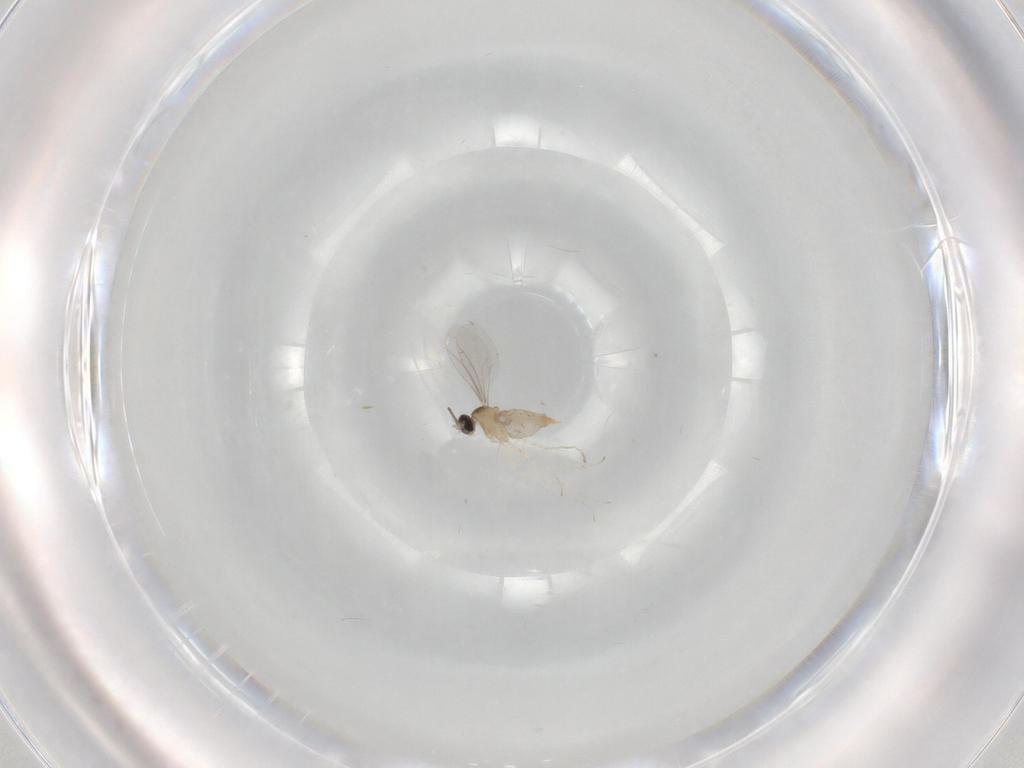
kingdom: Animalia
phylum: Arthropoda
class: Insecta
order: Diptera
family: Cecidomyiidae
